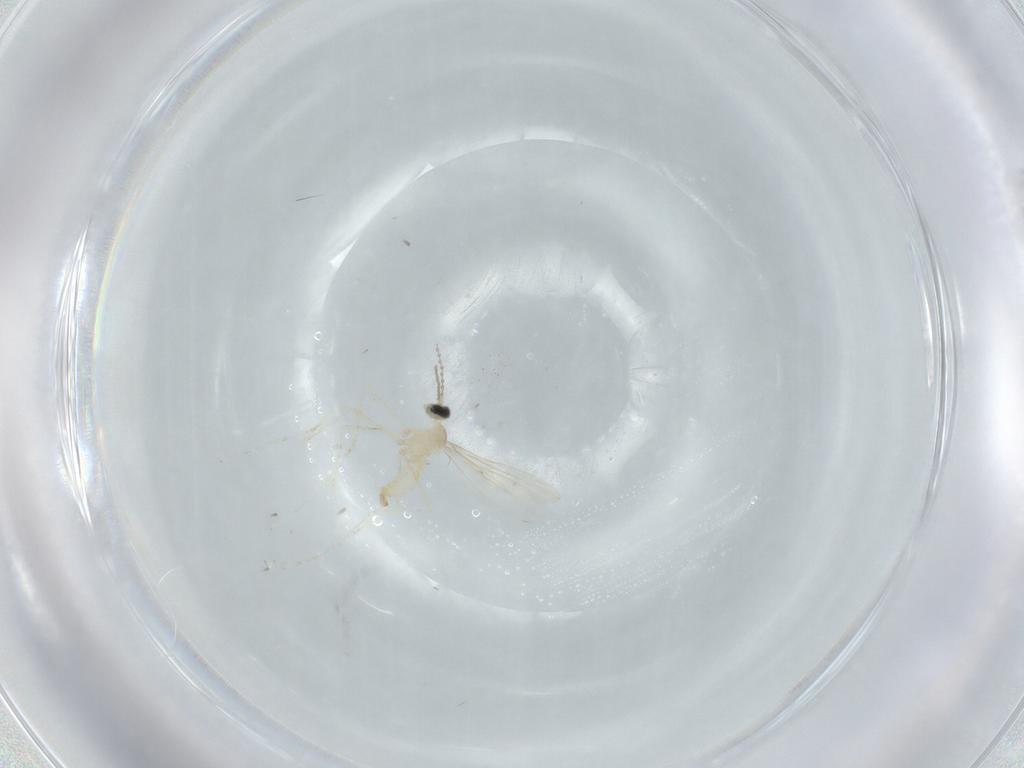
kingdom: Animalia
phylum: Arthropoda
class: Insecta
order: Diptera
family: Cecidomyiidae
